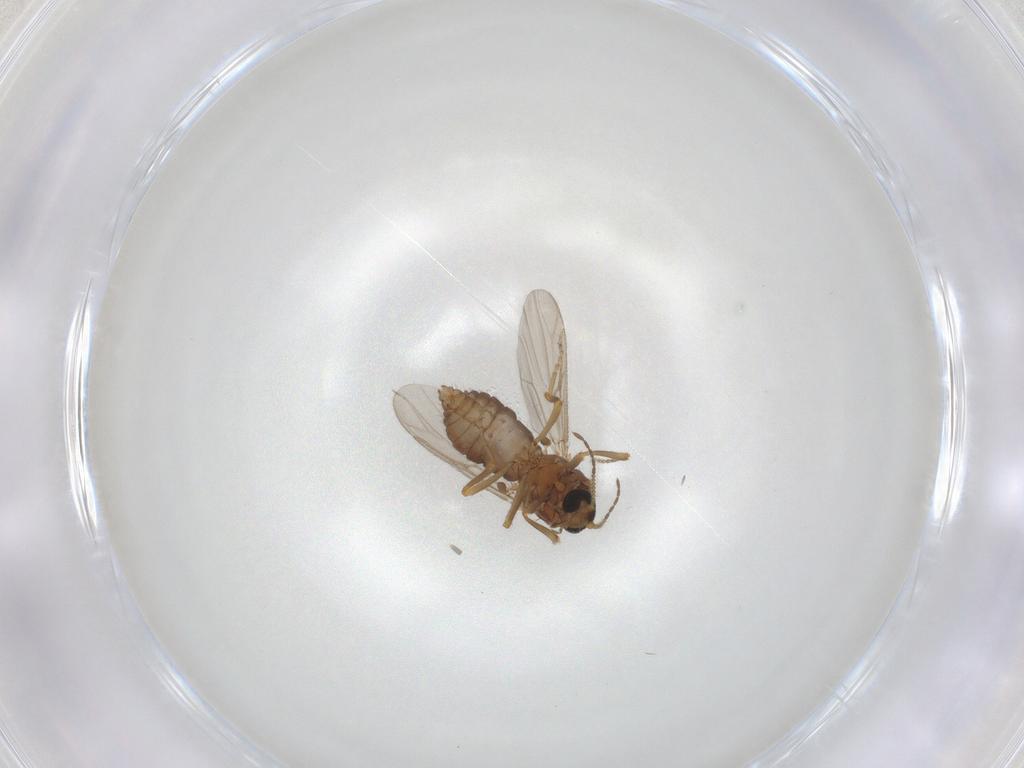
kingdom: Animalia
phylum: Arthropoda
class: Insecta
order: Diptera
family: Ceratopogonidae
